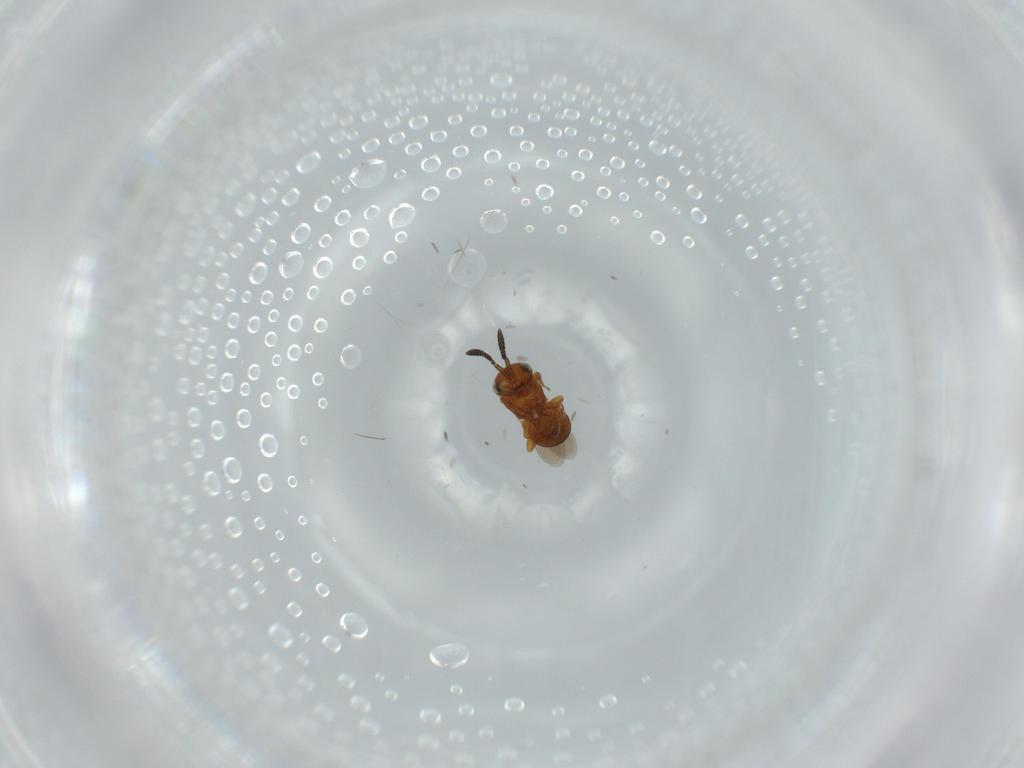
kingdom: Animalia
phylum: Arthropoda
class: Insecta
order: Hymenoptera
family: Scelionidae
